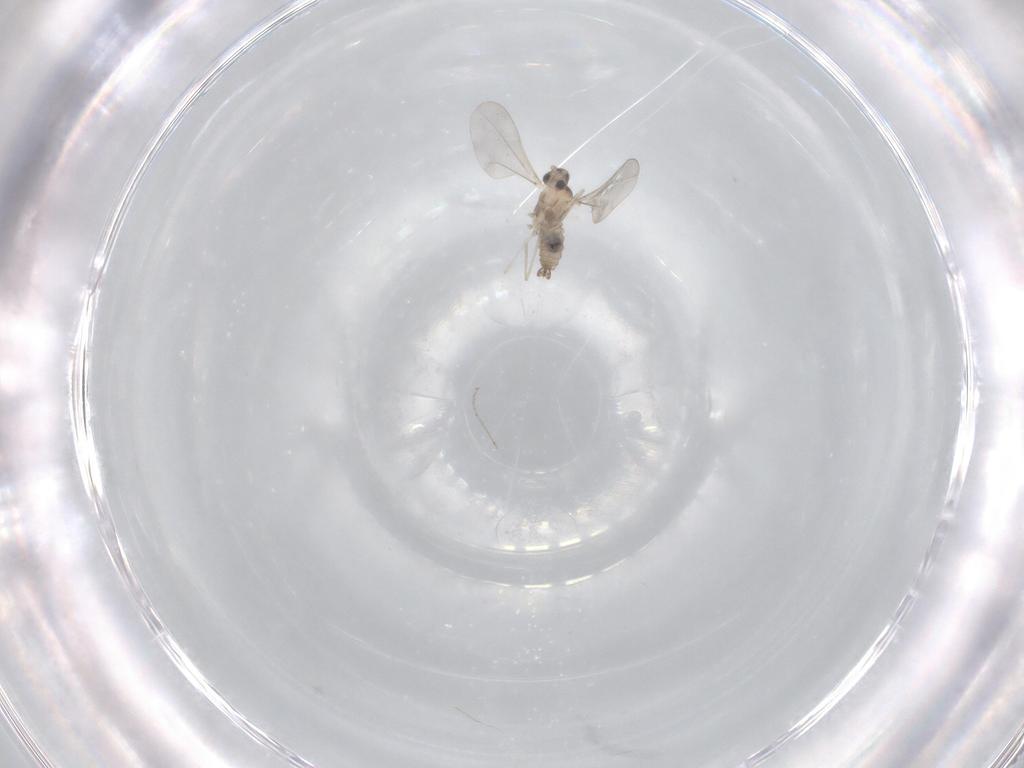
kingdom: Animalia
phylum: Arthropoda
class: Insecta
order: Diptera
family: Cecidomyiidae
